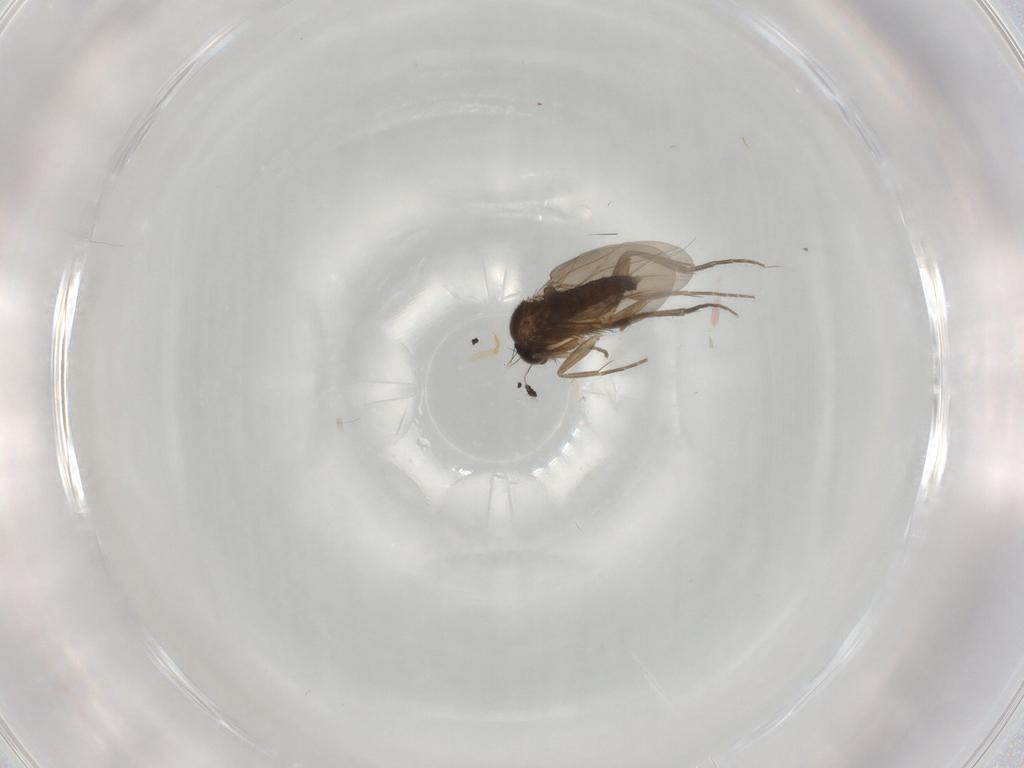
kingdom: Animalia
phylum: Arthropoda
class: Insecta
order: Diptera
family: Phoridae
